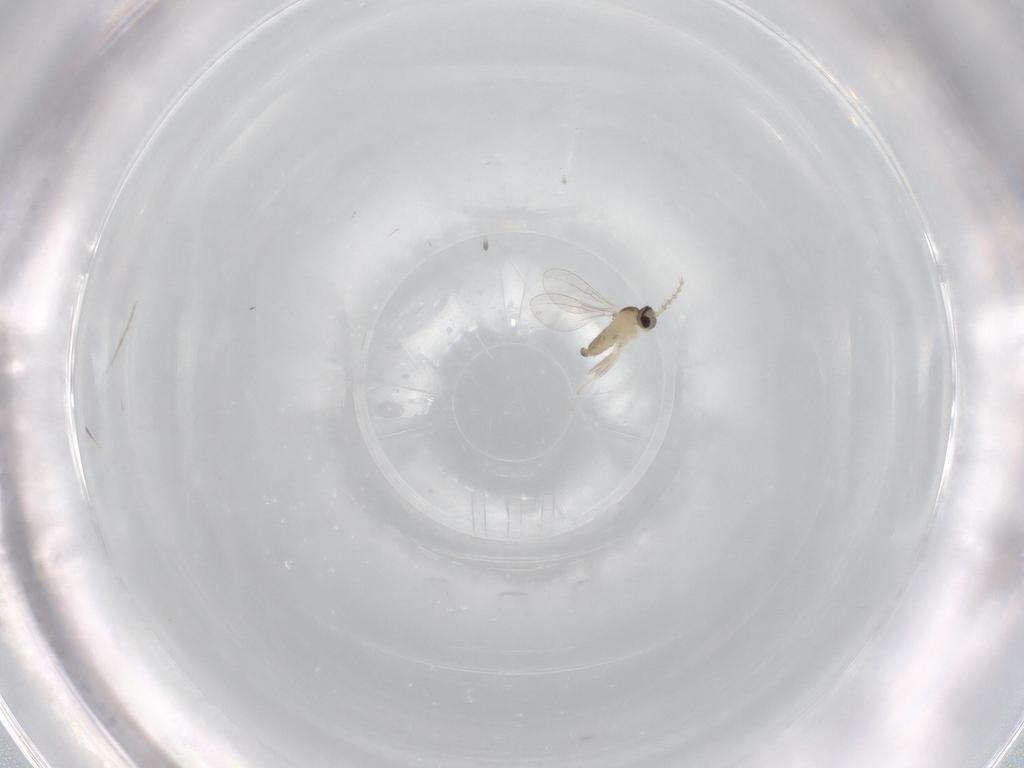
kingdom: Animalia
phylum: Arthropoda
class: Insecta
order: Diptera
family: Cecidomyiidae
